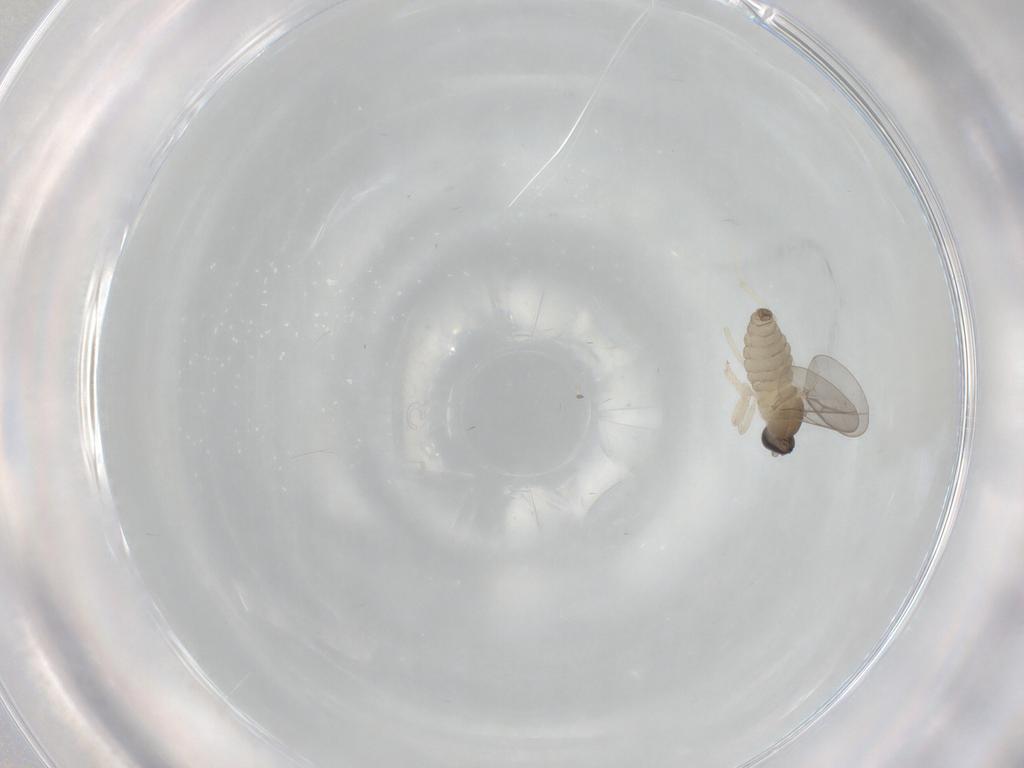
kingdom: Animalia
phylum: Arthropoda
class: Insecta
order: Diptera
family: Cecidomyiidae
